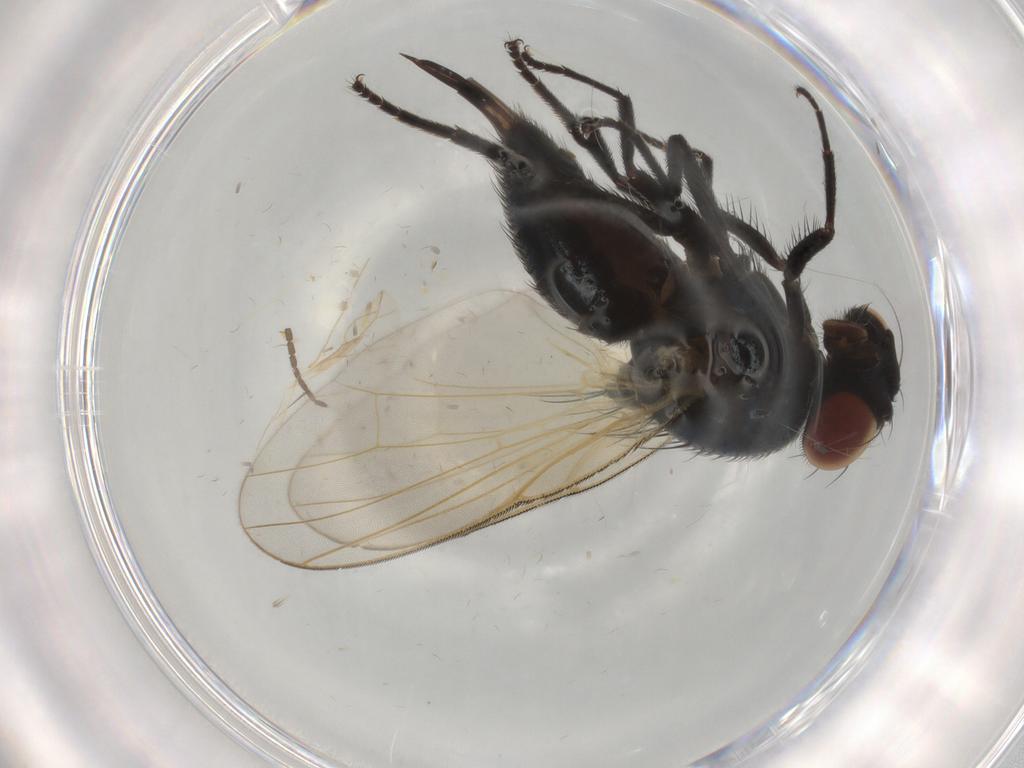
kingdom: Animalia
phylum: Arthropoda
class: Insecta
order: Diptera
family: Lonchaeidae
